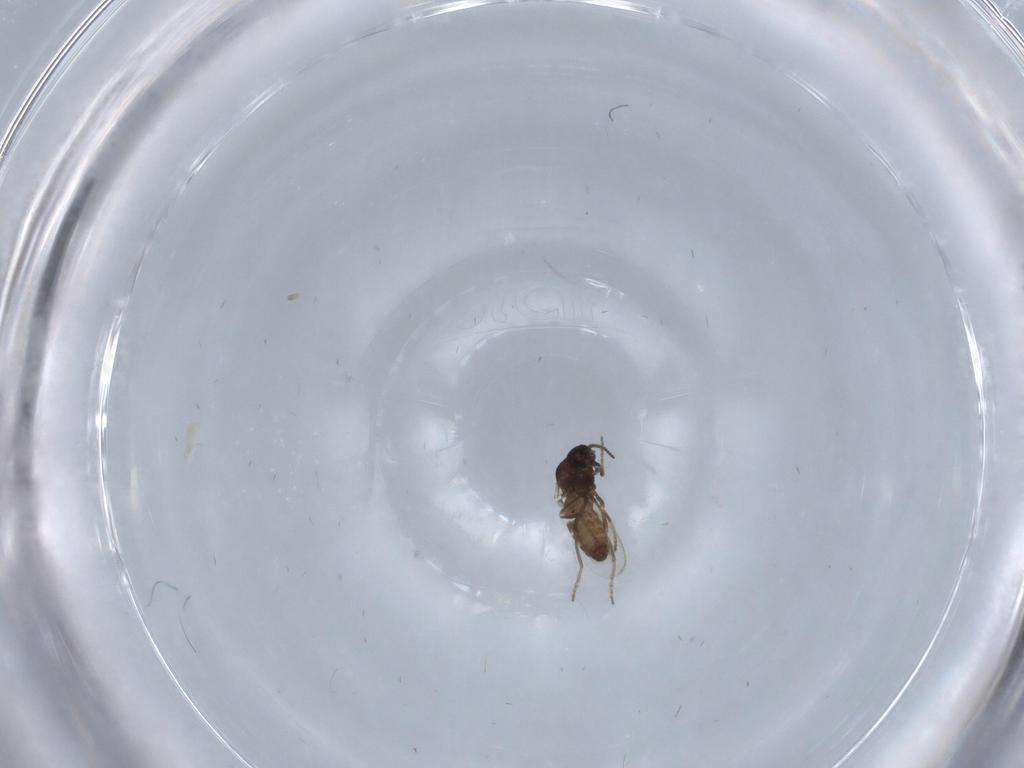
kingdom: Animalia
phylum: Arthropoda
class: Insecta
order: Diptera
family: Ceratopogonidae
